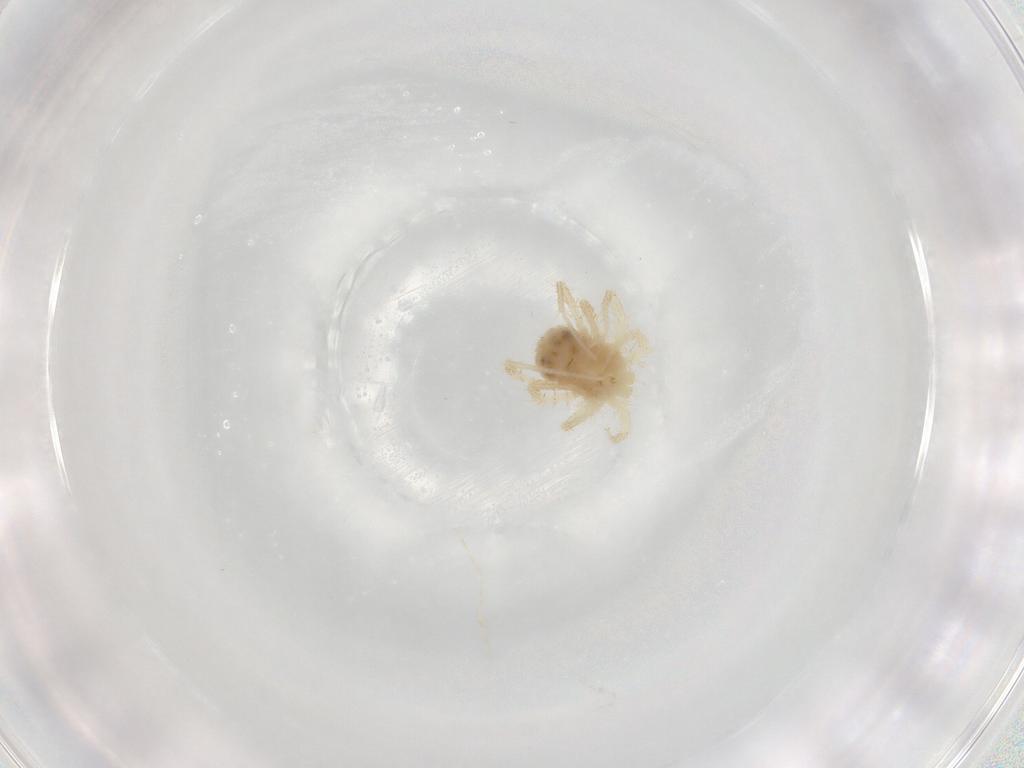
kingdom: Animalia
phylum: Arthropoda
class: Arachnida
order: Trombidiformes
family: Anystidae
